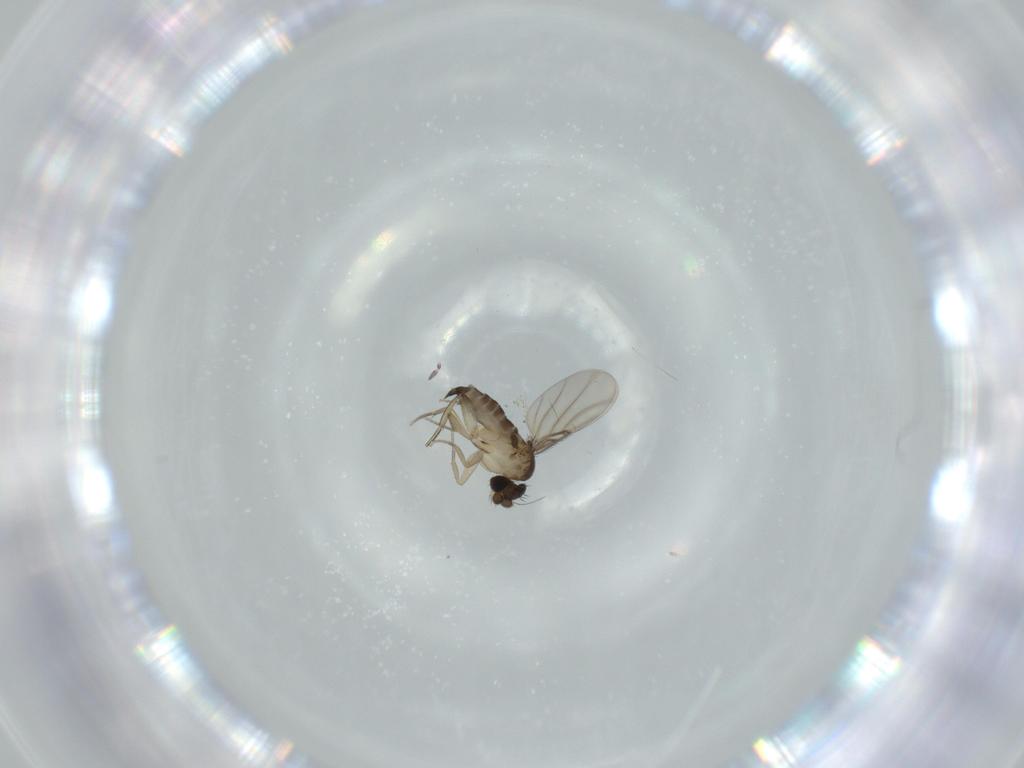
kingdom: Animalia
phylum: Arthropoda
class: Insecta
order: Diptera
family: Phoridae
